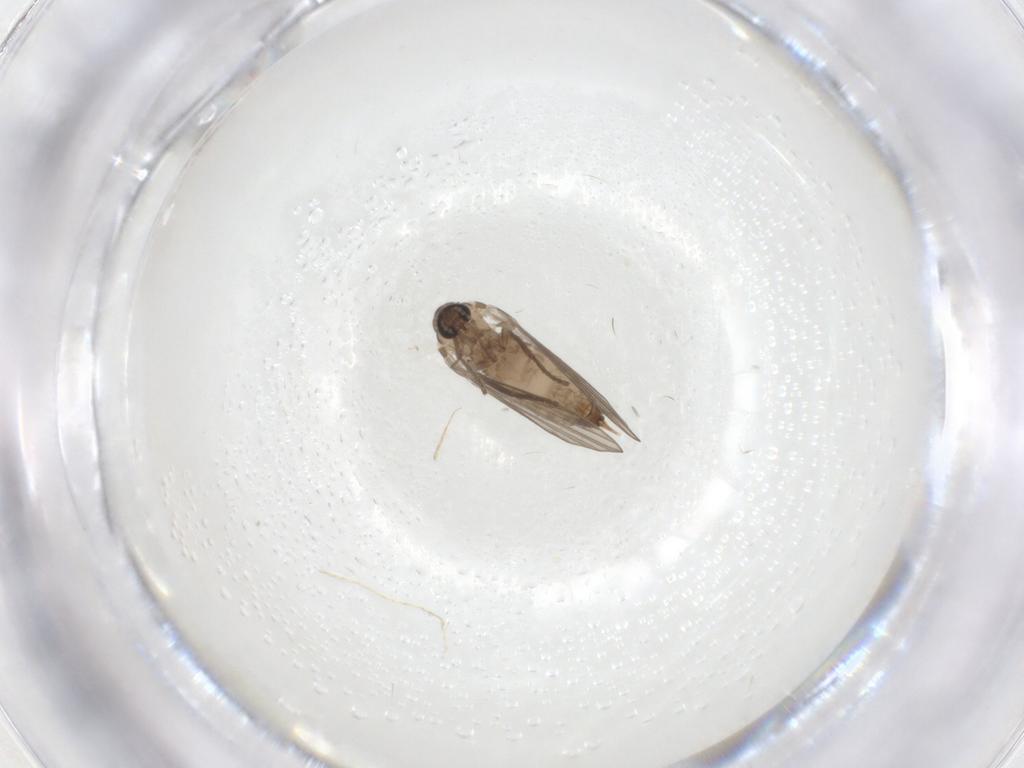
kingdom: Animalia
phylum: Arthropoda
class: Insecta
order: Diptera
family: Psychodidae
